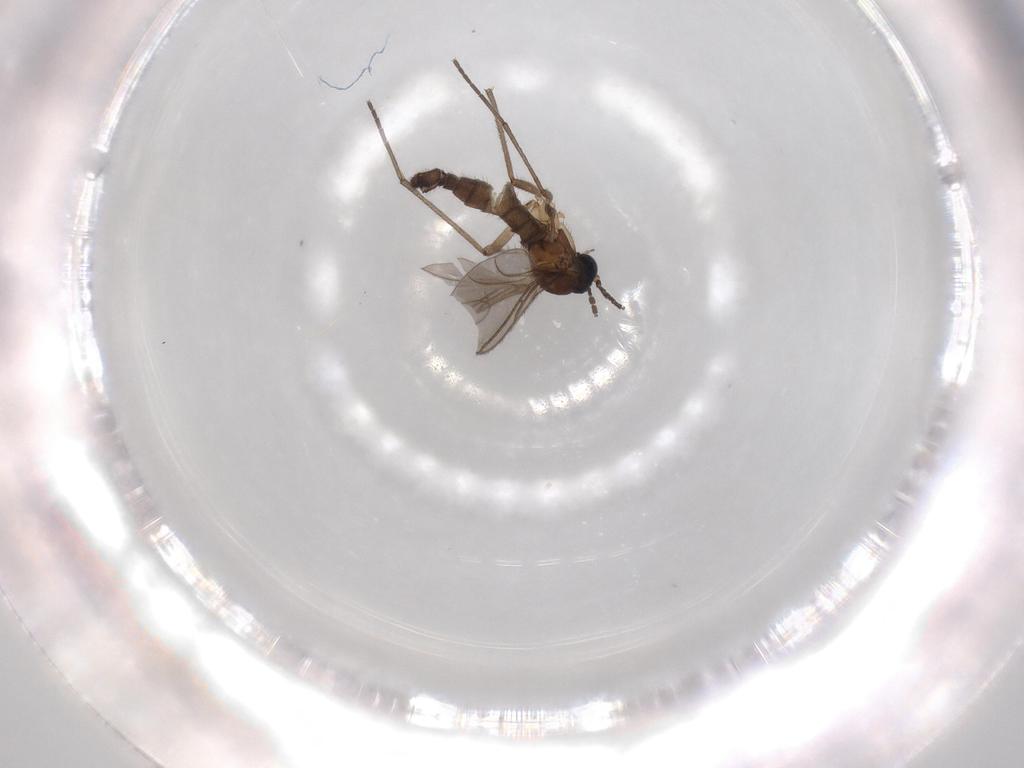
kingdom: Animalia
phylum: Arthropoda
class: Insecta
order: Diptera
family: Sciaridae
